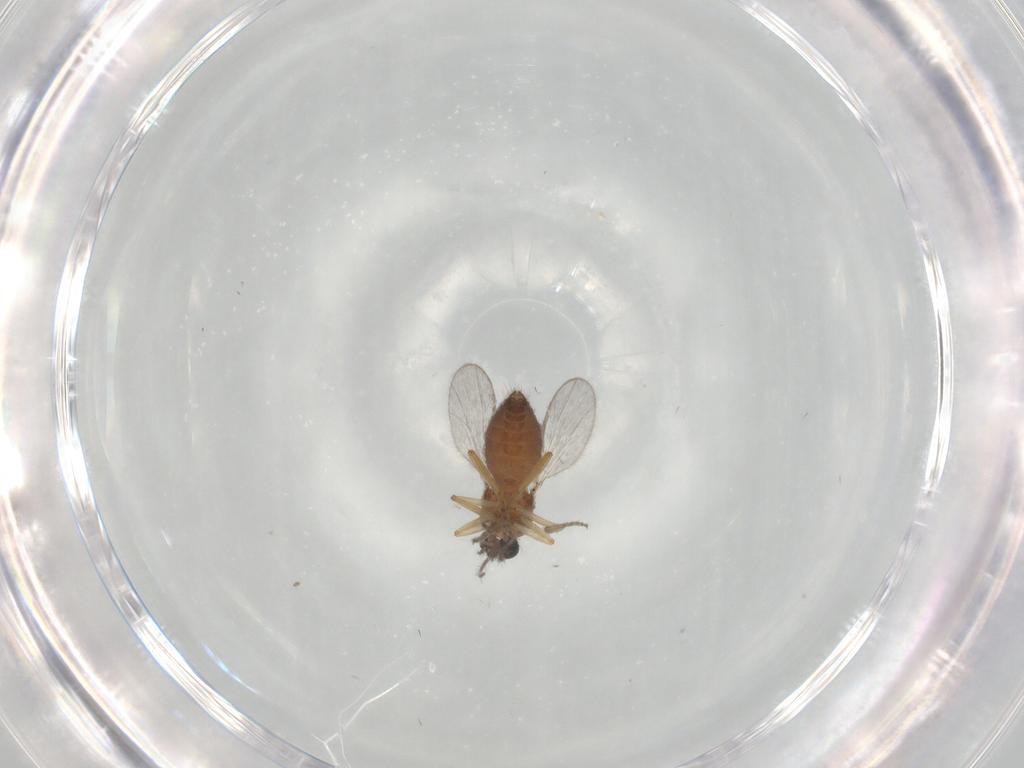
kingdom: Animalia
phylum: Arthropoda
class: Insecta
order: Diptera
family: Ceratopogonidae
